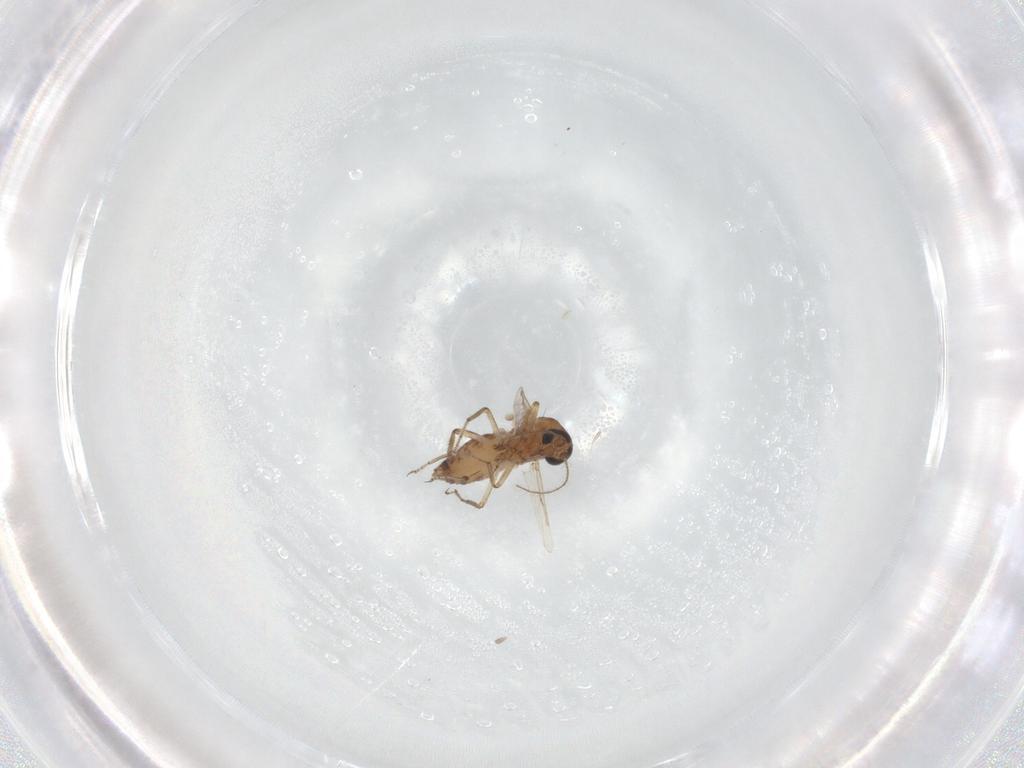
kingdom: Animalia
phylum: Arthropoda
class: Insecta
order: Diptera
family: Ceratopogonidae
